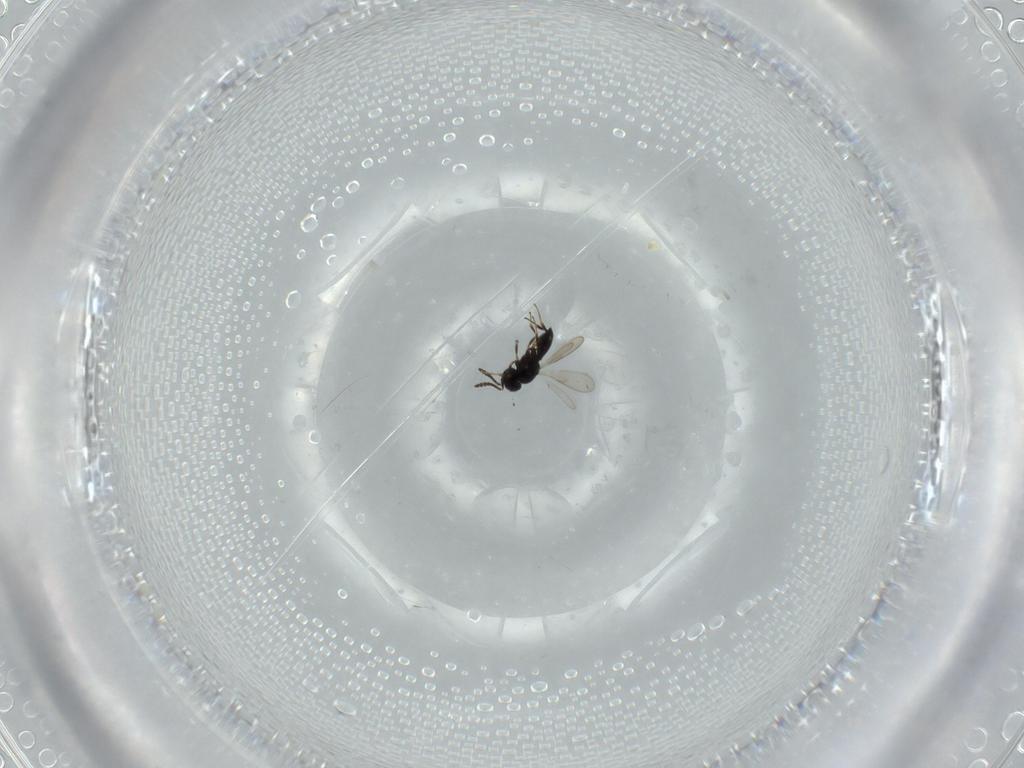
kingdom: Animalia
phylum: Arthropoda
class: Insecta
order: Hymenoptera
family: Scelionidae
